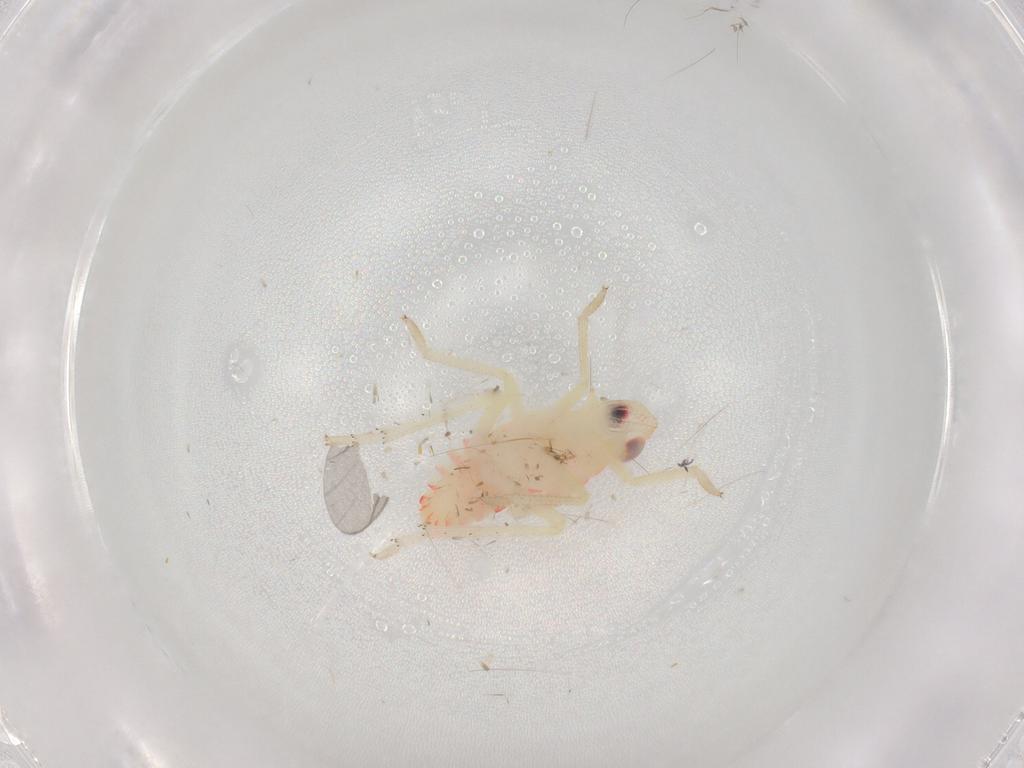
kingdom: Animalia
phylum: Arthropoda
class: Insecta
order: Hemiptera
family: Tropiduchidae
